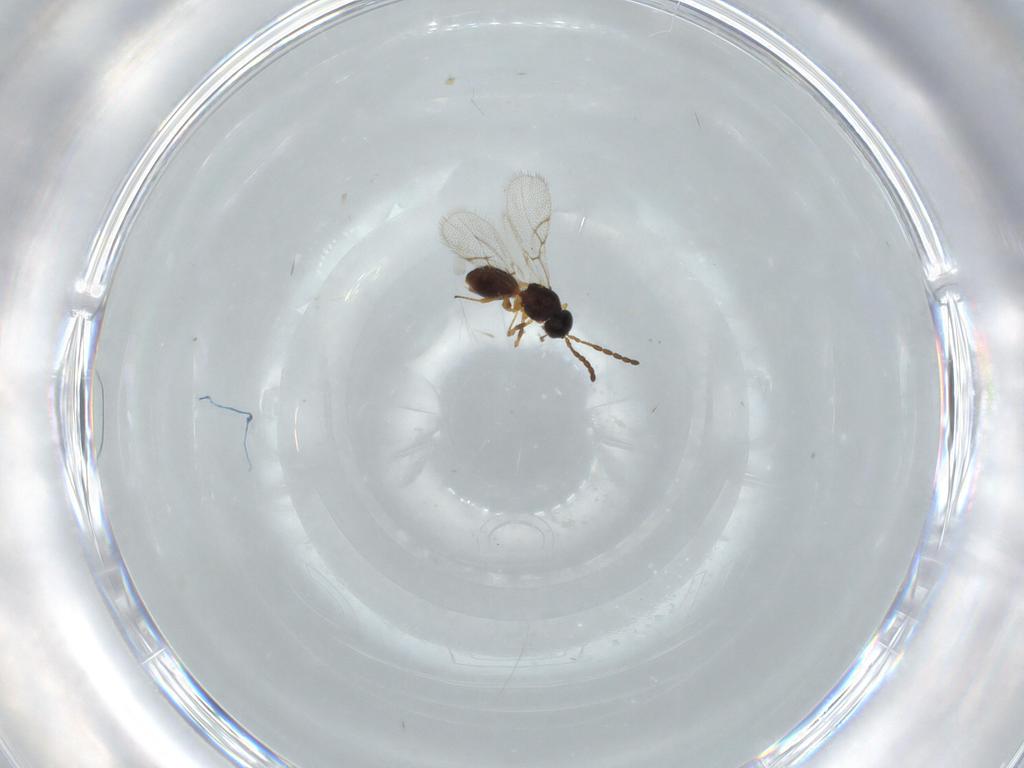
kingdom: Animalia
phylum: Arthropoda
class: Insecta
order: Hymenoptera
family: Figitidae
